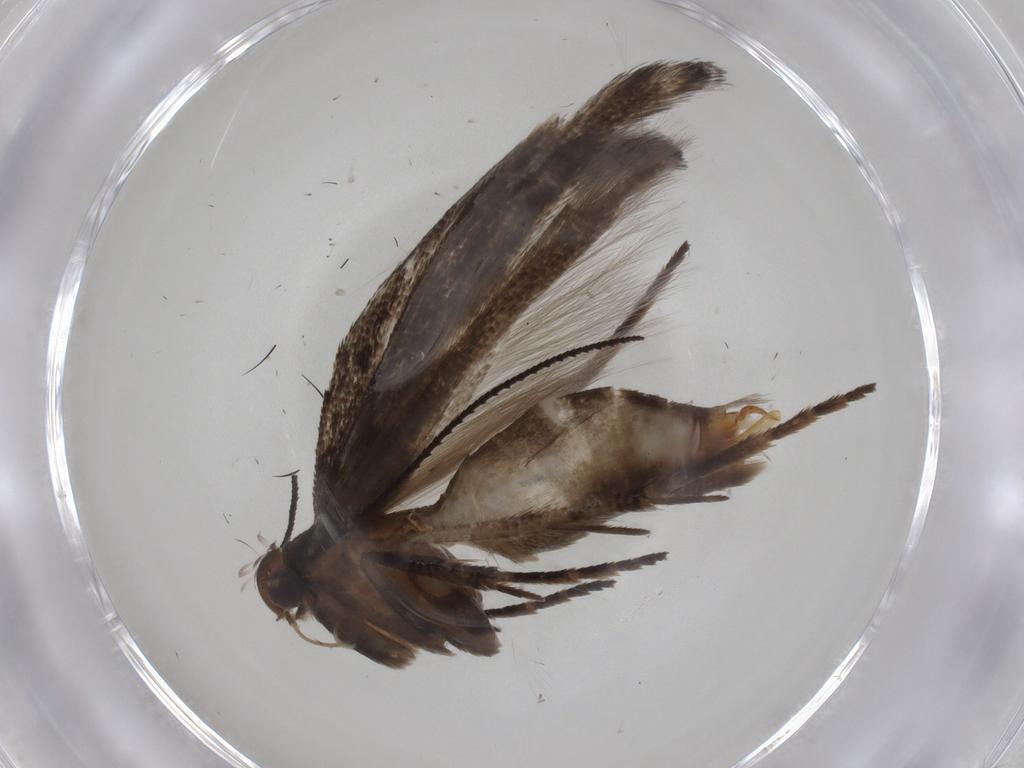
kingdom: Animalia
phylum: Arthropoda
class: Insecta
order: Lepidoptera
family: Gelechiidae
